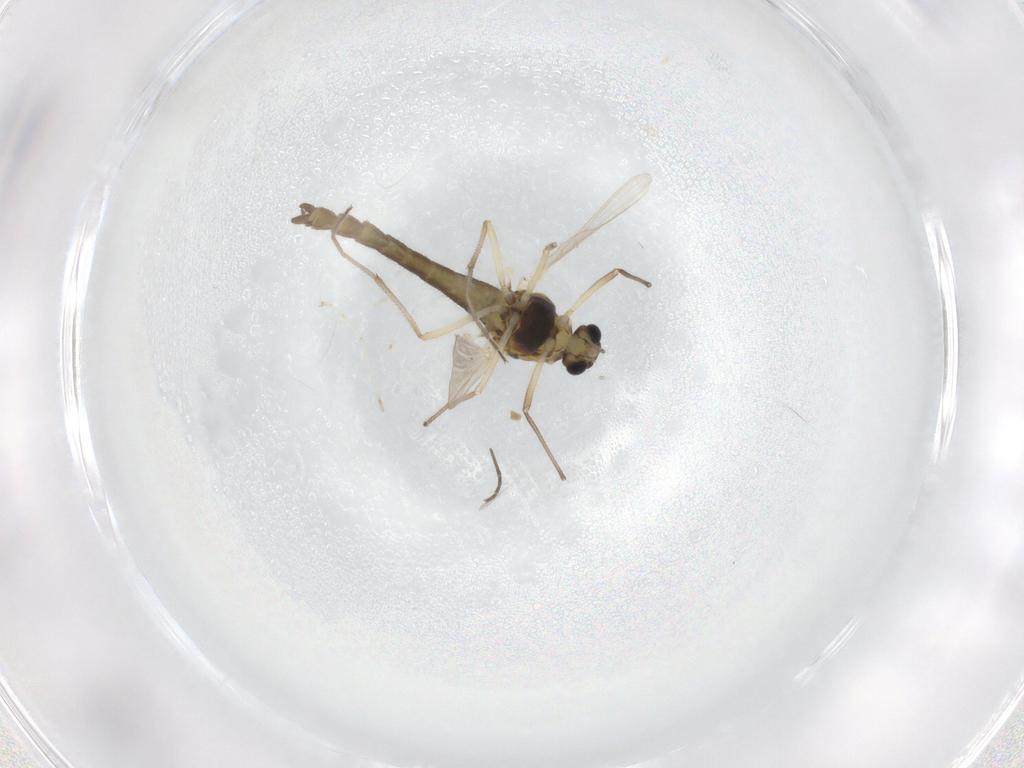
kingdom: Animalia
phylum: Arthropoda
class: Insecta
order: Diptera
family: Chironomidae
